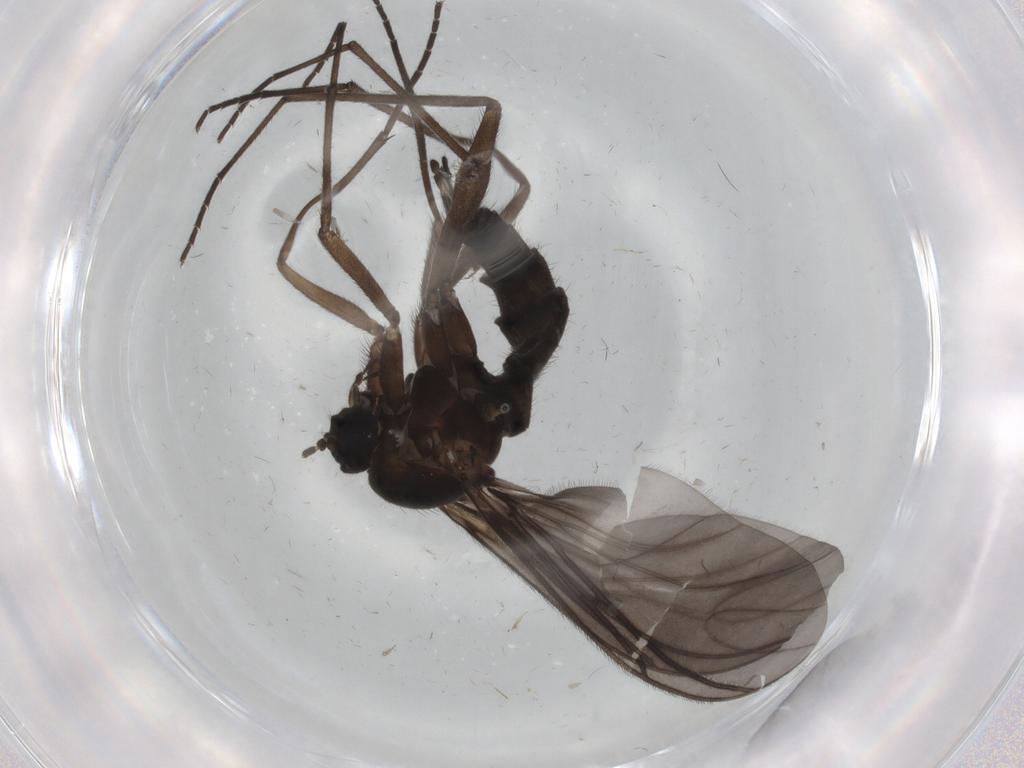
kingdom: Animalia
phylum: Arthropoda
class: Insecta
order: Diptera
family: Sciaridae
